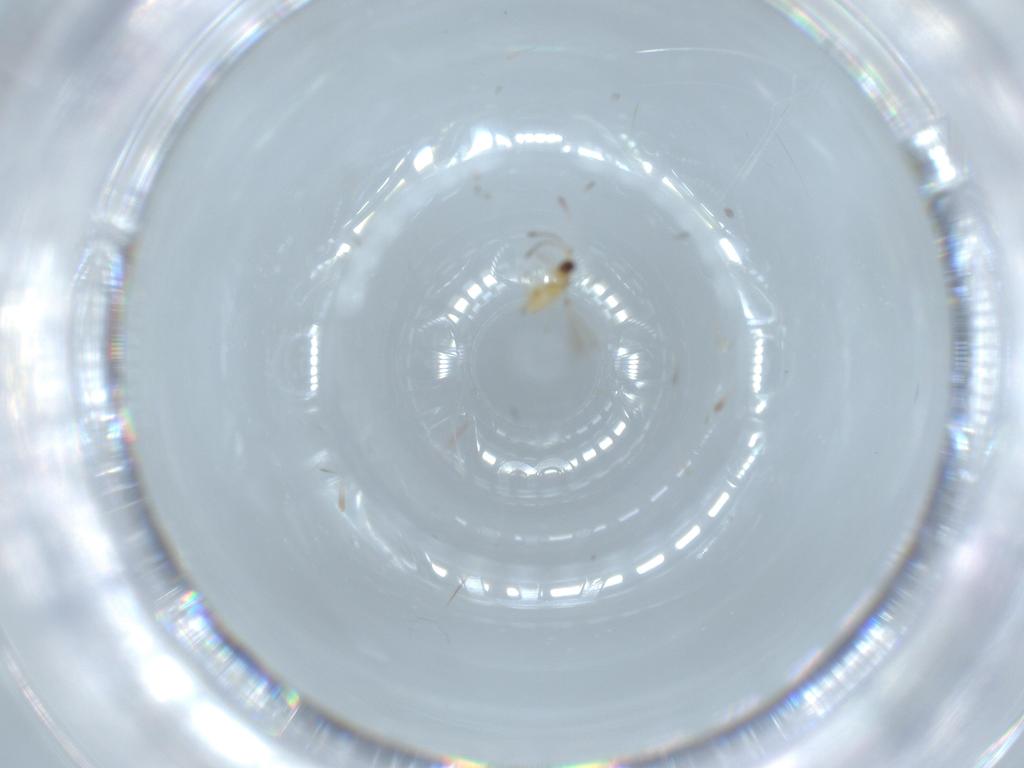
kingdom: Animalia
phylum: Arthropoda
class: Insecta
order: Hymenoptera
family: Mymaridae
